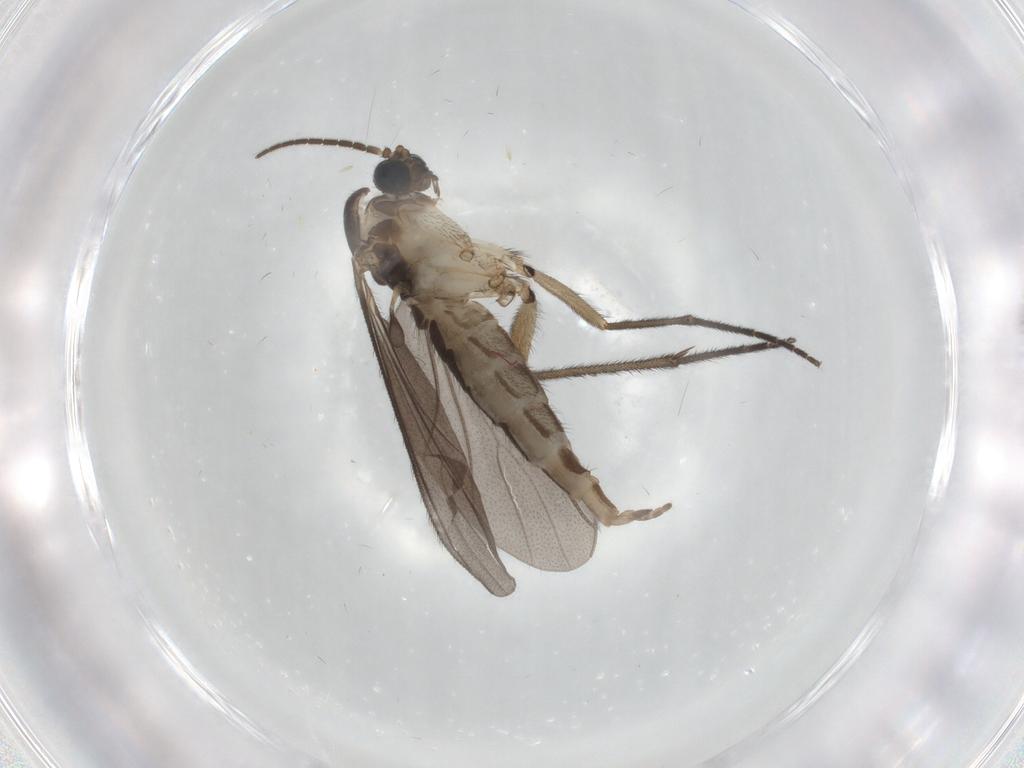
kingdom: Animalia
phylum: Arthropoda
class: Insecta
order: Diptera
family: Sciaridae
